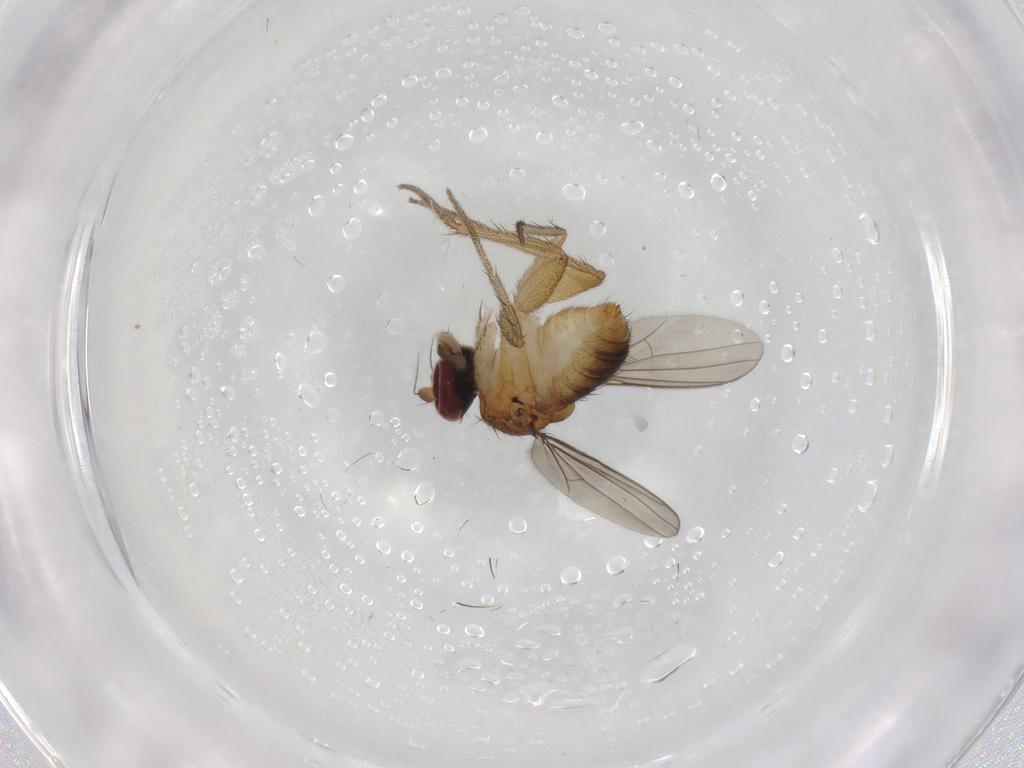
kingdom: Animalia
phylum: Arthropoda
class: Insecta
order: Diptera
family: Dolichopodidae
